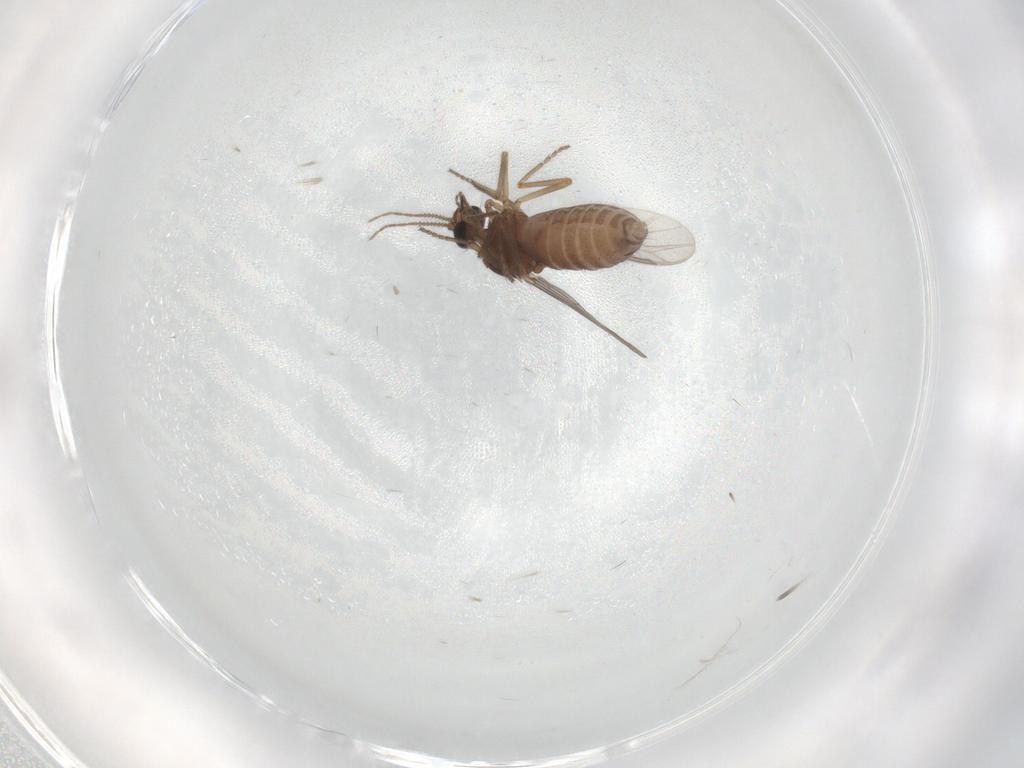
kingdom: Animalia
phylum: Arthropoda
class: Insecta
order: Diptera
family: Ceratopogonidae
